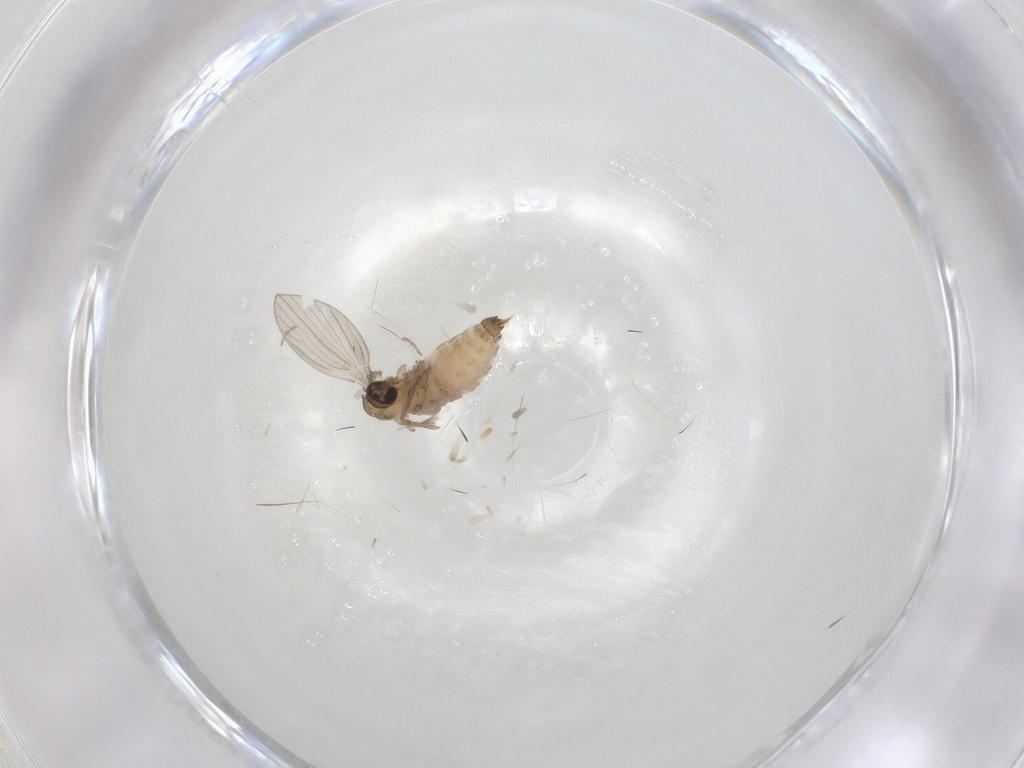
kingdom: Animalia
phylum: Arthropoda
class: Insecta
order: Diptera
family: Psychodidae
